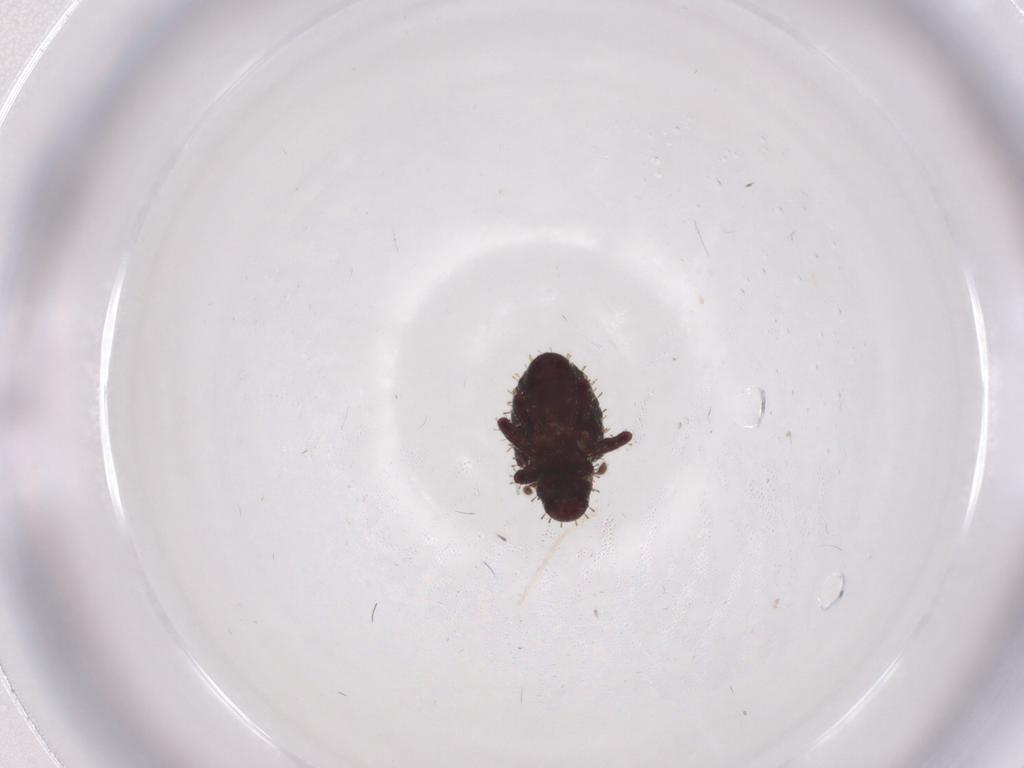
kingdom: Animalia
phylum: Arthropoda
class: Insecta
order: Coleoptera
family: Curculionidae
